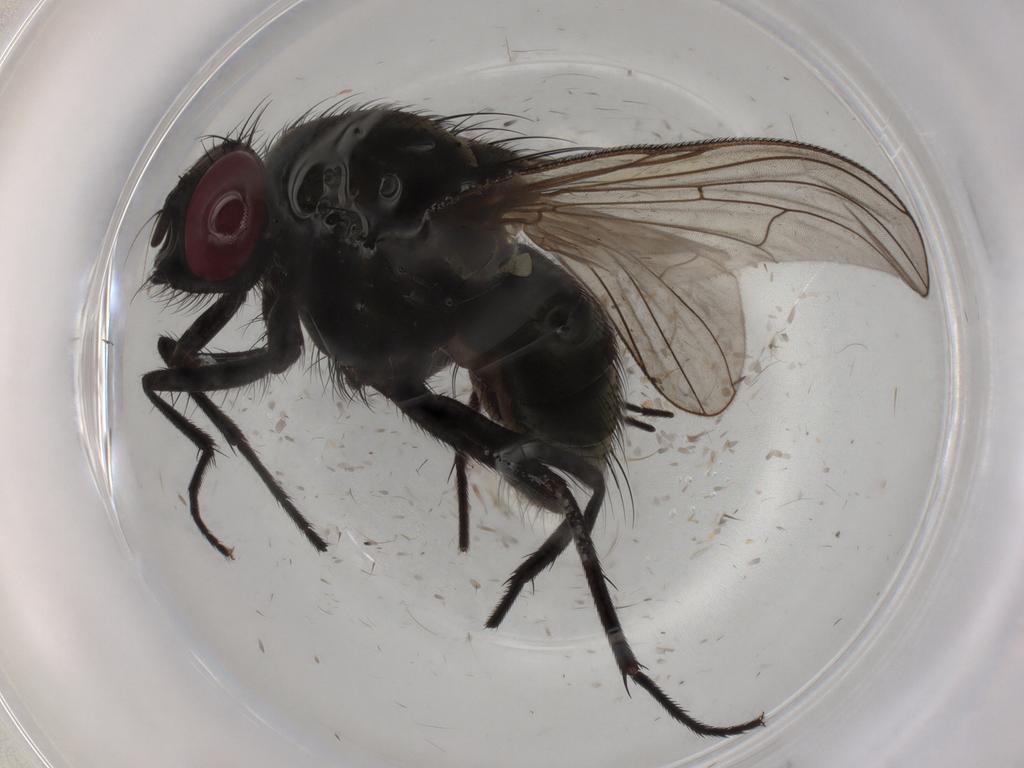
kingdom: Animalia
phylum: Arthropoda
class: Insecta
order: Diptera
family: Muscidae
